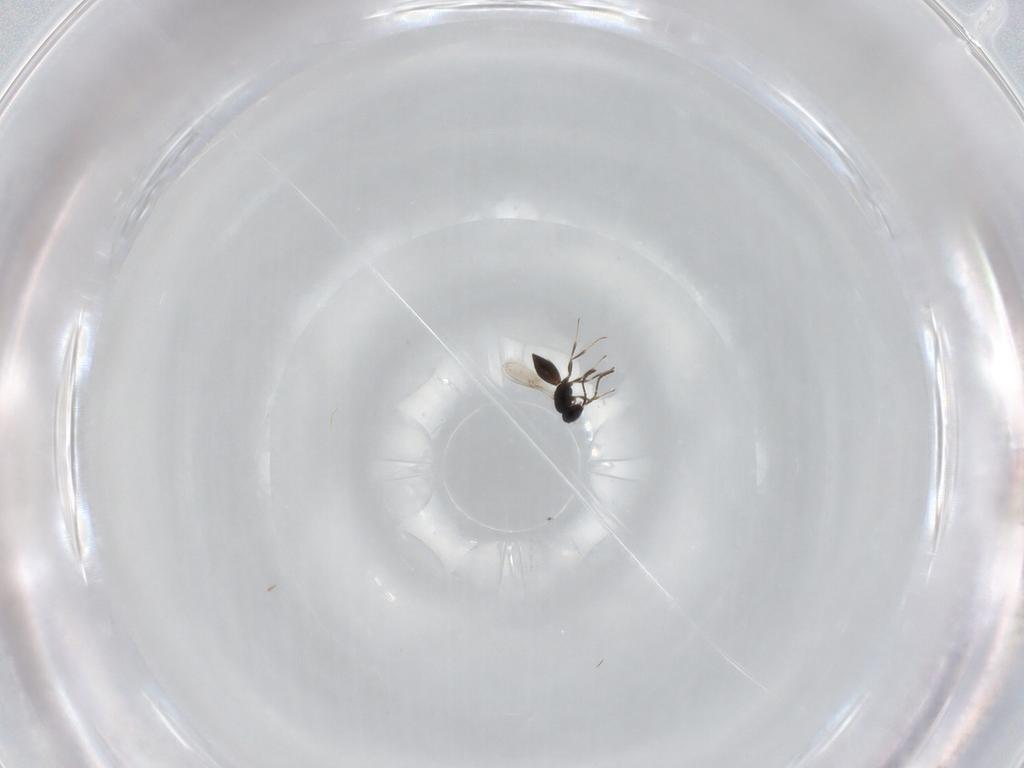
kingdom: Animalia
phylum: Arthropoda
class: Insecta
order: Hymenoptera
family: Scelionidae
